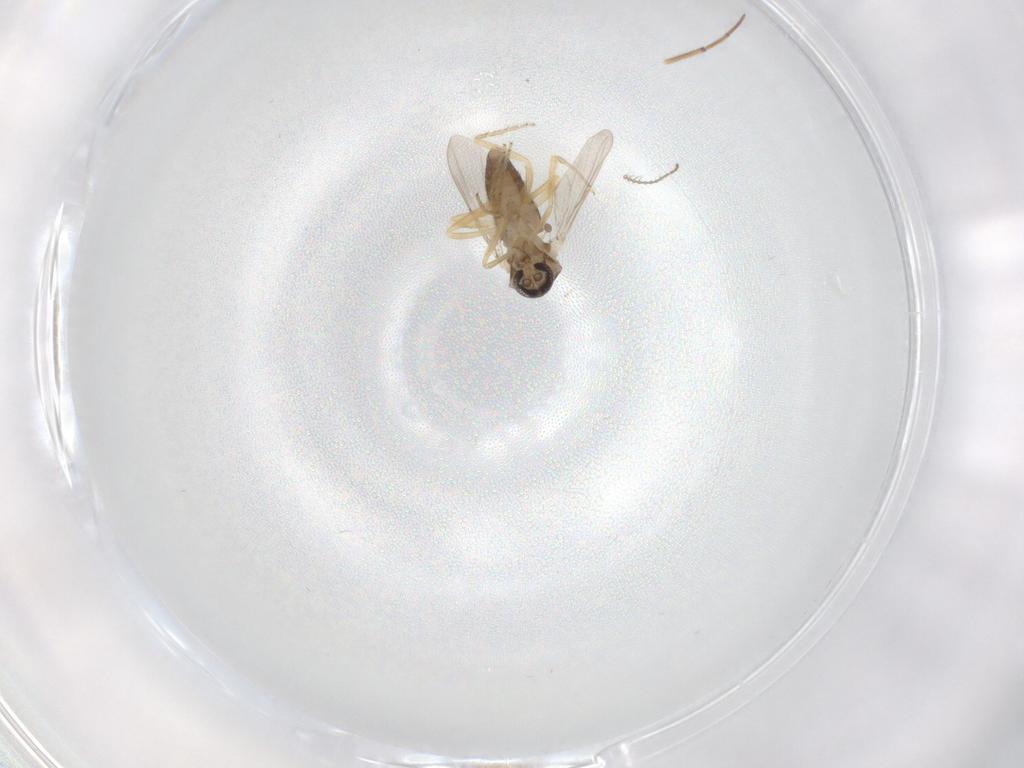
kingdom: Animalia
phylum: Arthropoda
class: Insecta
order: Diptera
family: Ceratopogonidae
